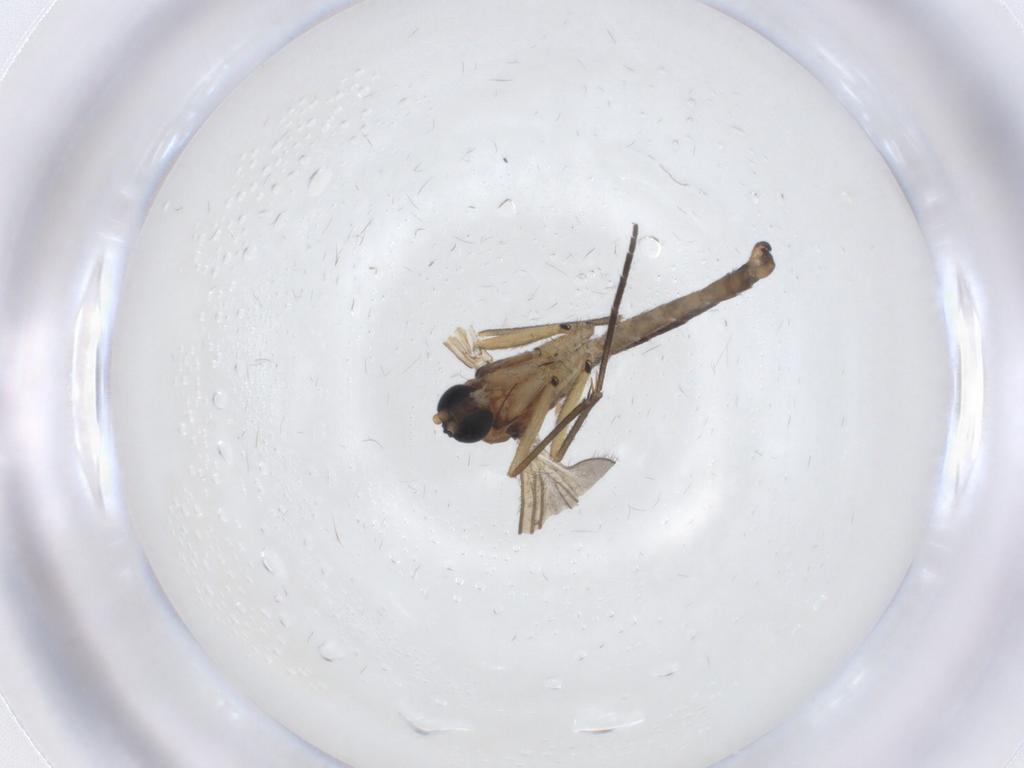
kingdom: Animalia
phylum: Arthropoda
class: Insecta
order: Diptera
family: Sciaridae
